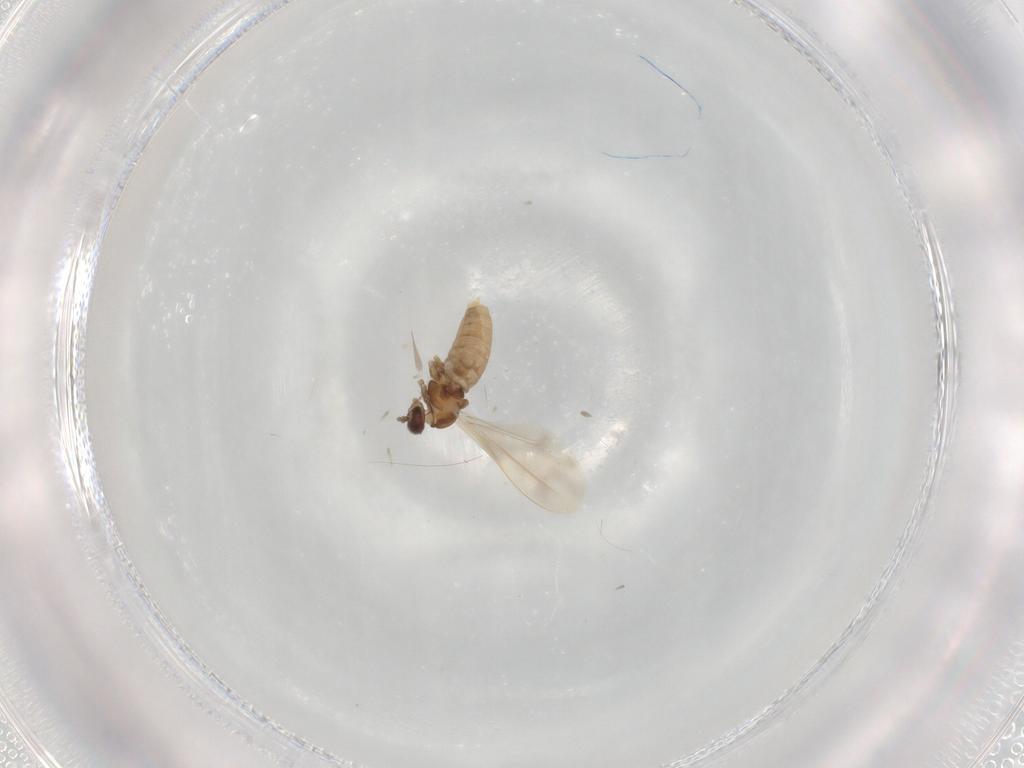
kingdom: Animalia
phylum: Arthropoda
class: Insecta
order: Diptera
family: Cecidomyiidae
